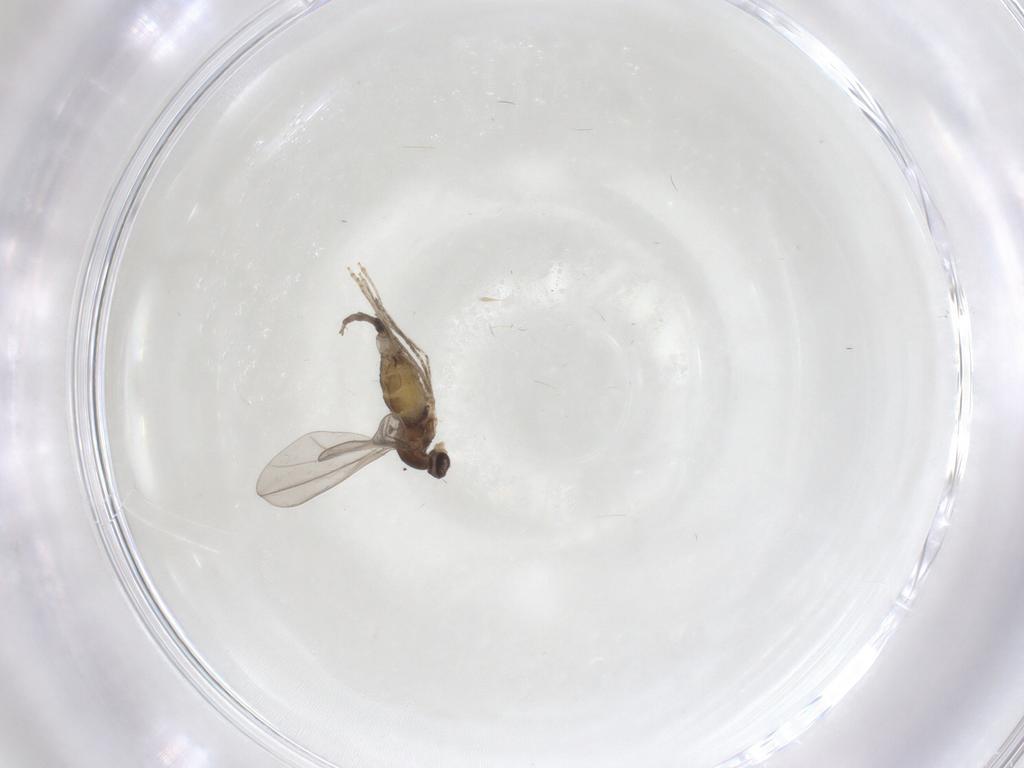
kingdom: Animalia
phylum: Arthropoda
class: Insecta
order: Diptera
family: Cecidomyiidae
